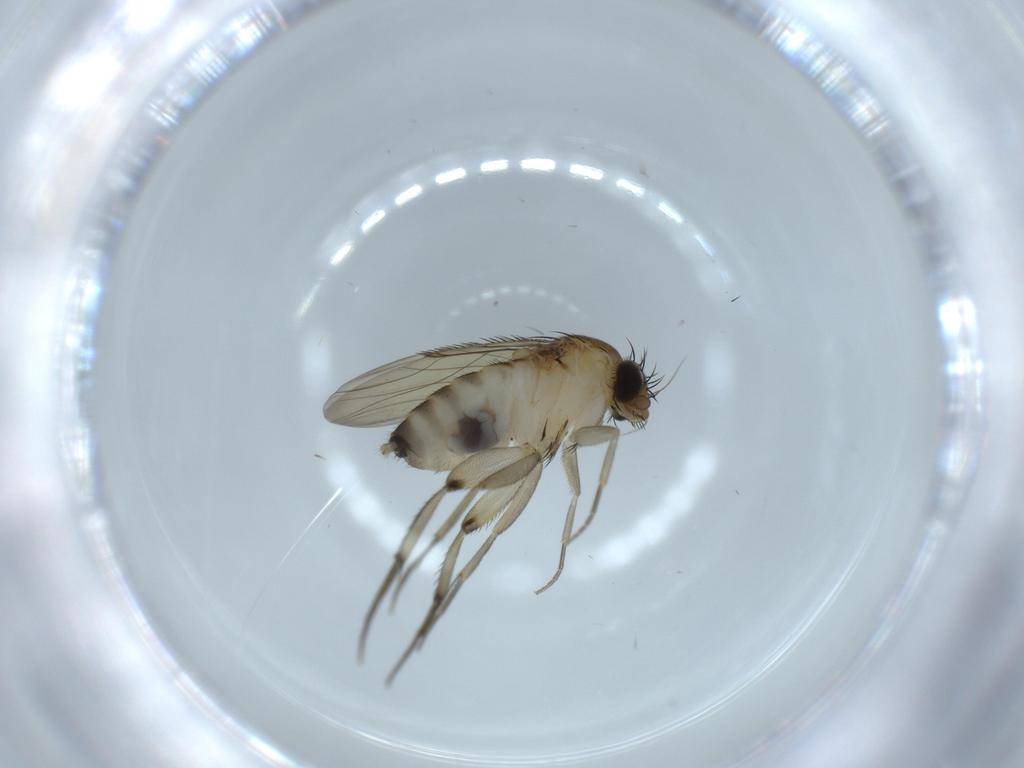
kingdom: Animalia
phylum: Arthropoda
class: Insecta
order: Diptera
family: Phoridae
